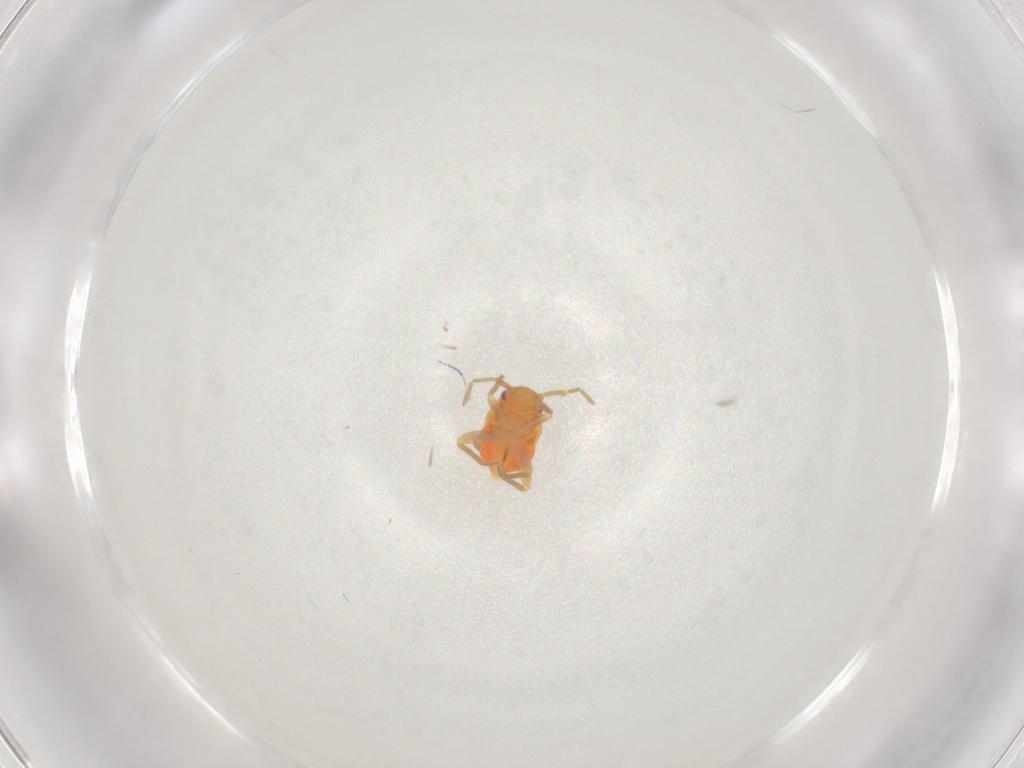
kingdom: Animalia
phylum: Arthropoda
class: Insecta
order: Hemiptera
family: Miridae
